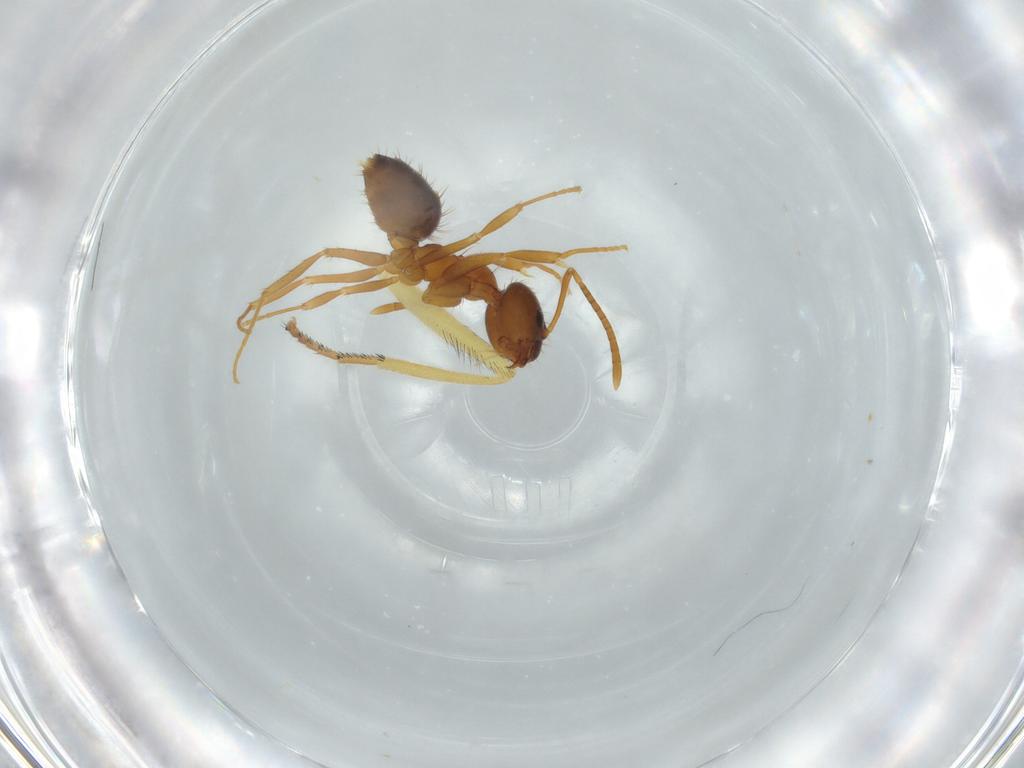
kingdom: Animalia
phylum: Arthropoda
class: Insecta
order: Hymenoptera
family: Formicidae
